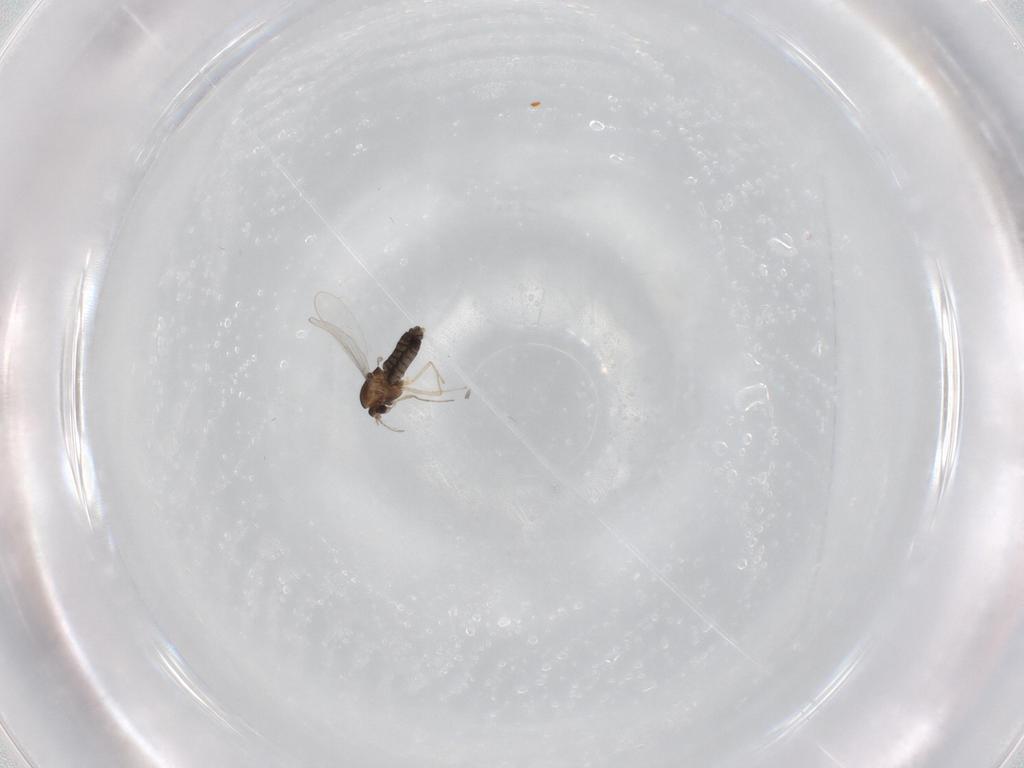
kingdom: Animalia
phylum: Arthropoda
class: Insecta
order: Diptera
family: Chironomidae
